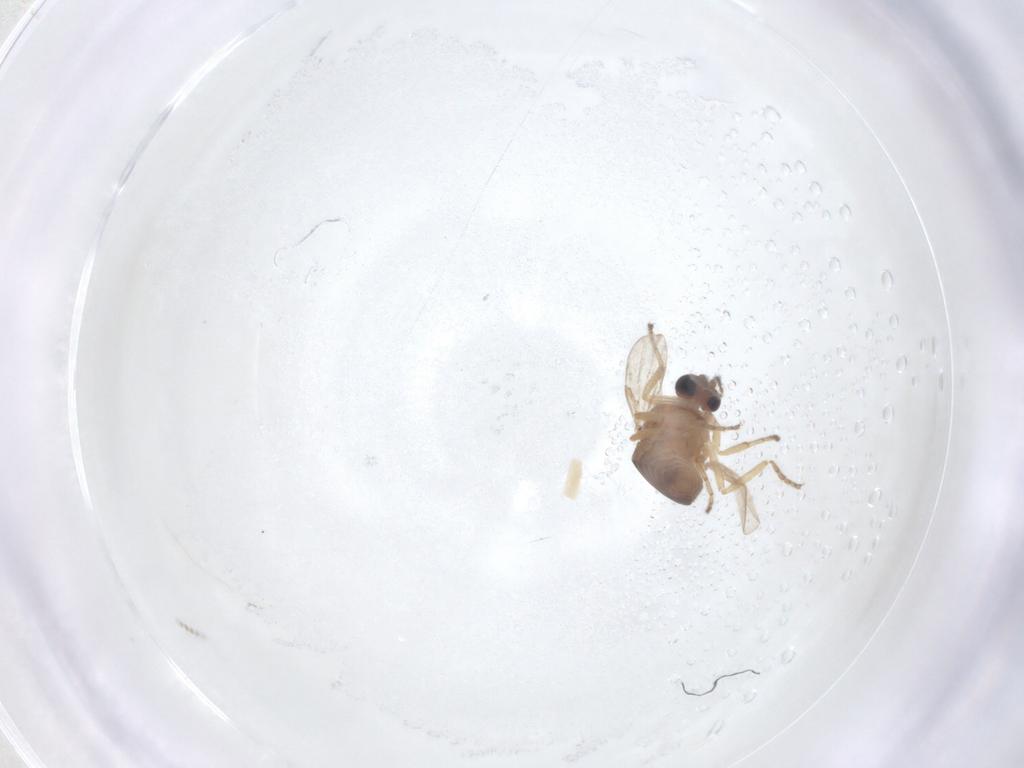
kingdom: Animalia
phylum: Arthropoda
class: Insecta
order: Diptera
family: Ceratopogonidae
